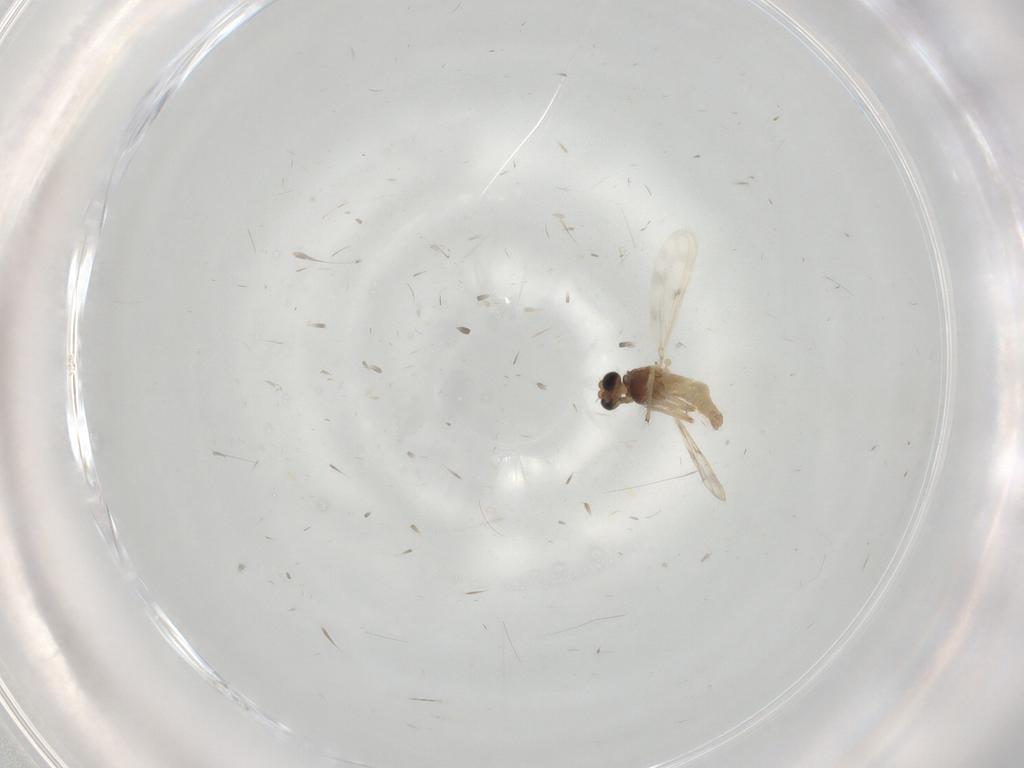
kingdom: Animalia
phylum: Arthropoda
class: Insecta
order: Diptera
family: Chironomidae
